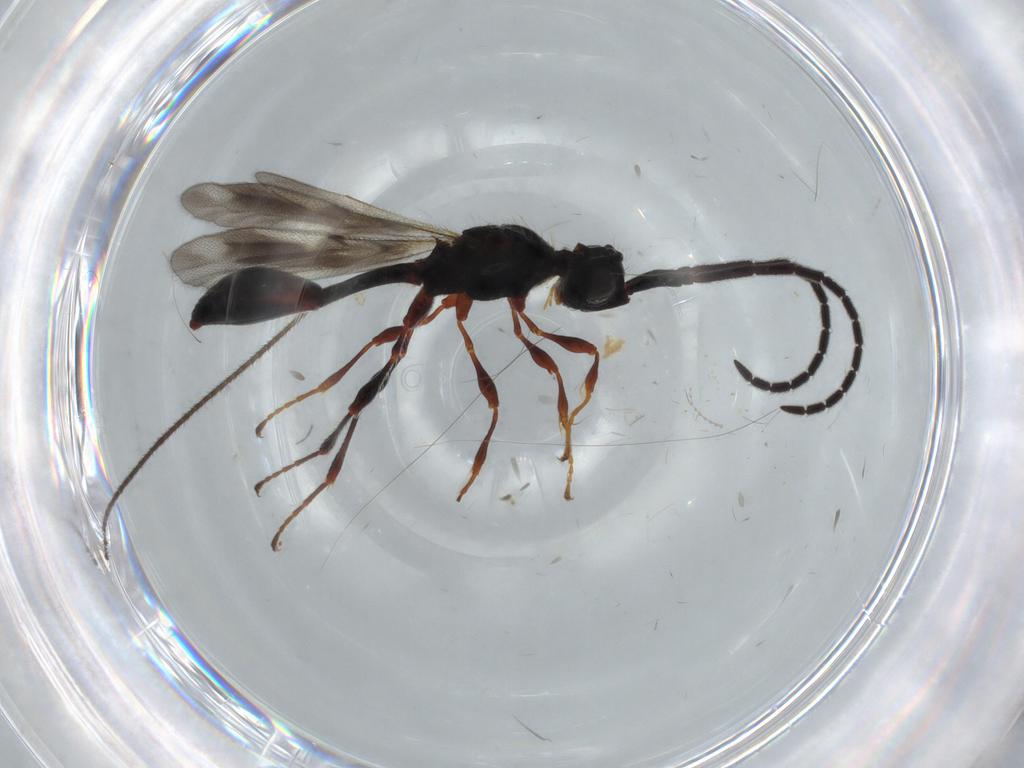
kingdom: Animalia
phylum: Arthropoda
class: Insecta
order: Hymenoptera
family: Diapriidae
